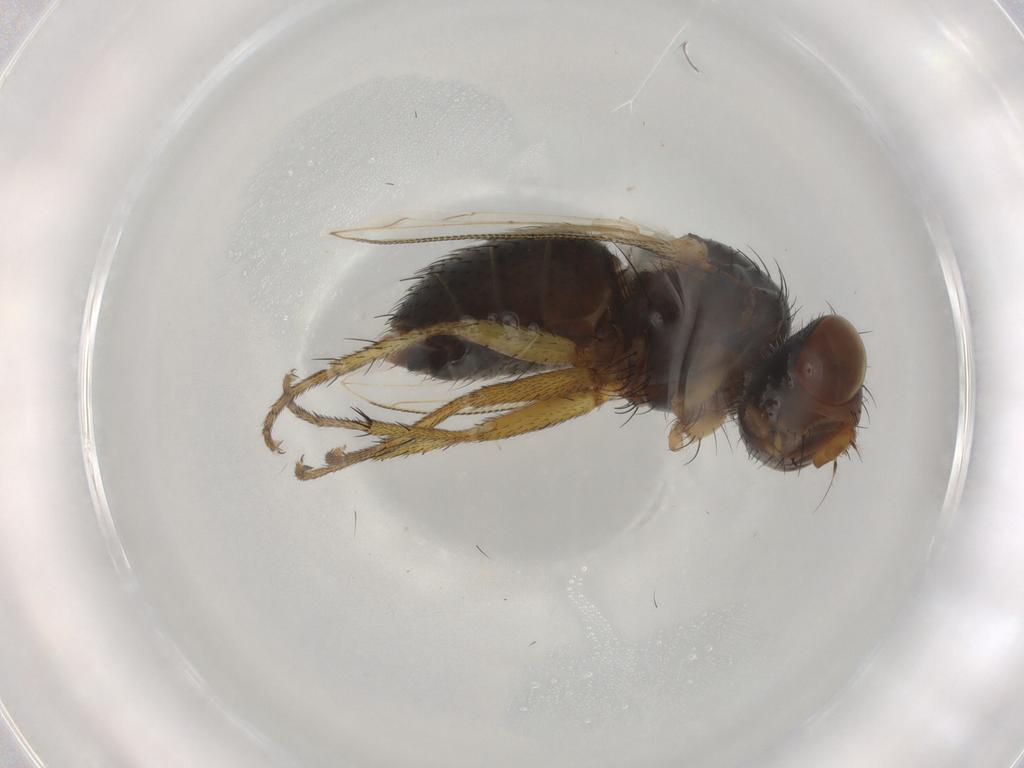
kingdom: Animalia
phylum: Arthropoda
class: Insecta
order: Diptera
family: Sarcophagidae
